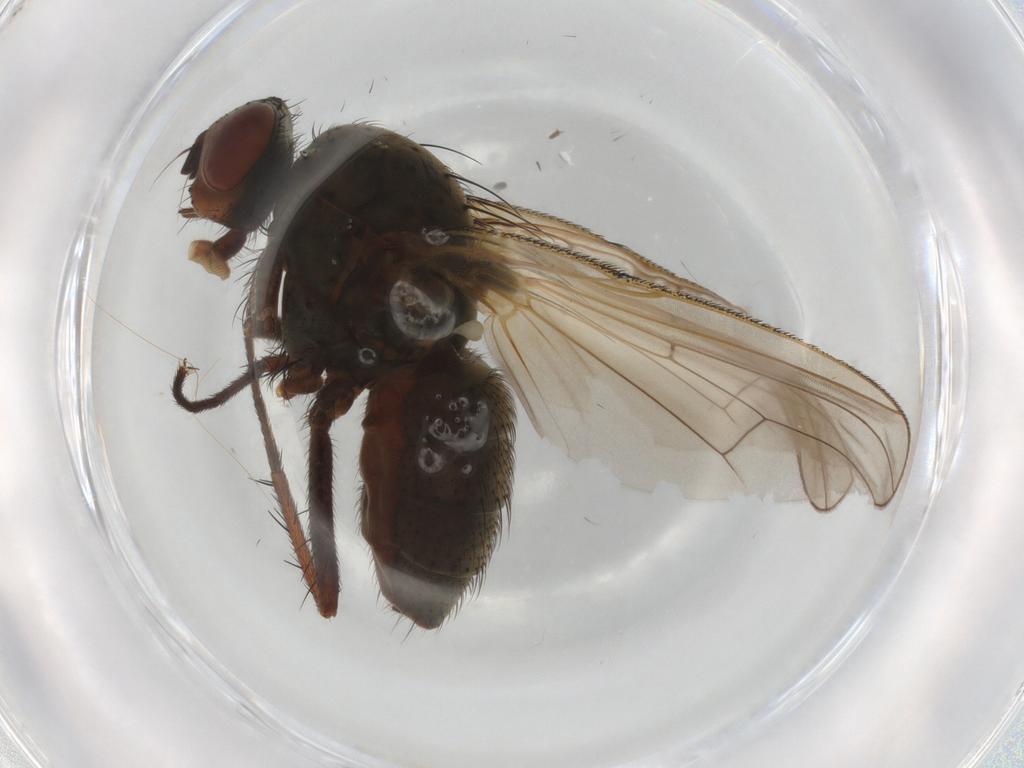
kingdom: Animalia
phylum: Arthropoda
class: Insecta
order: Diptera
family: Anthomyiidae
